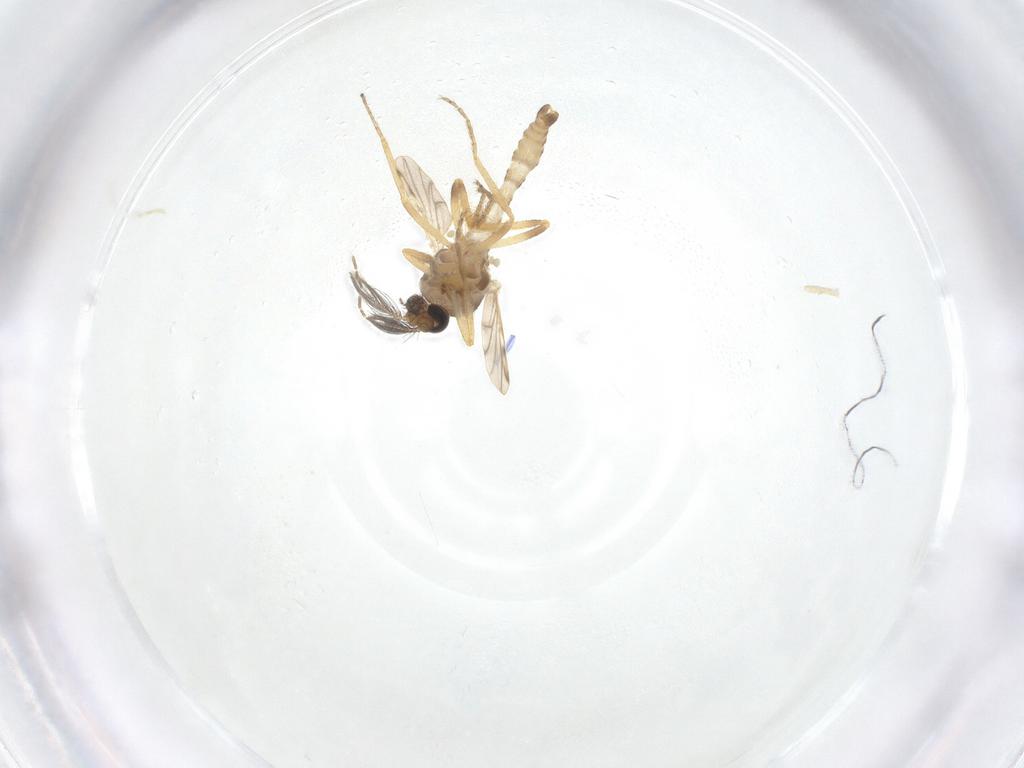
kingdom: Animalia
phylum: Arthropoda
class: Insecta
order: Diptera
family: Ceratopogonidae
